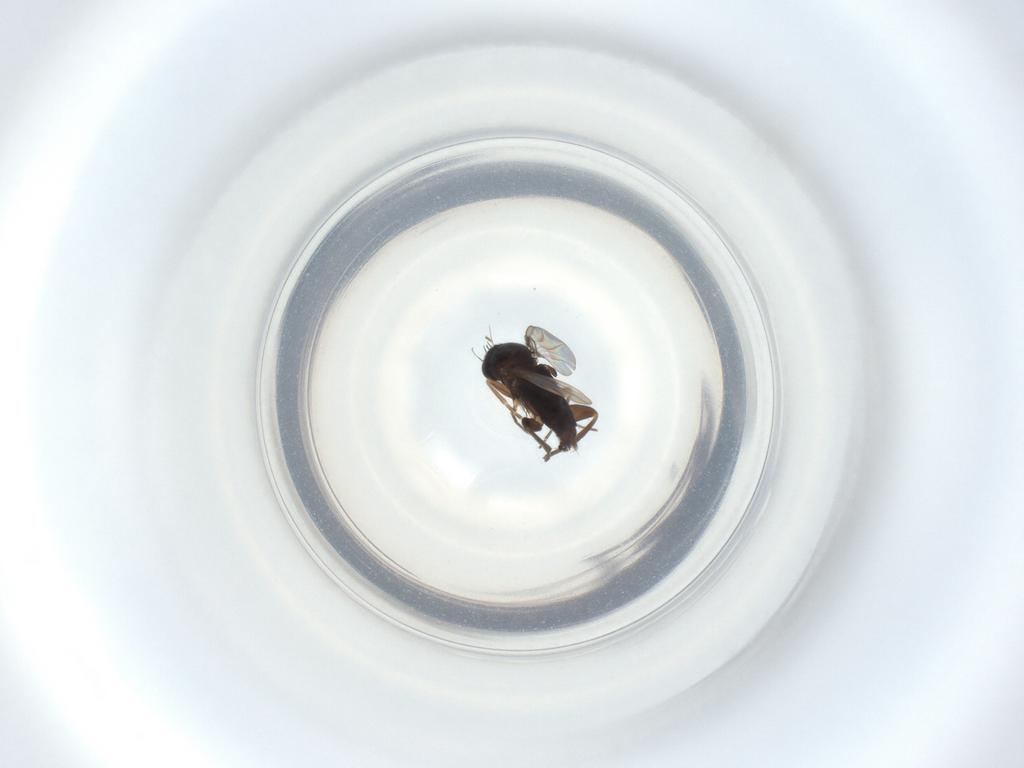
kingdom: Animalia
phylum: Arthropoda
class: Insecta
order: Diptera
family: Phoridae
